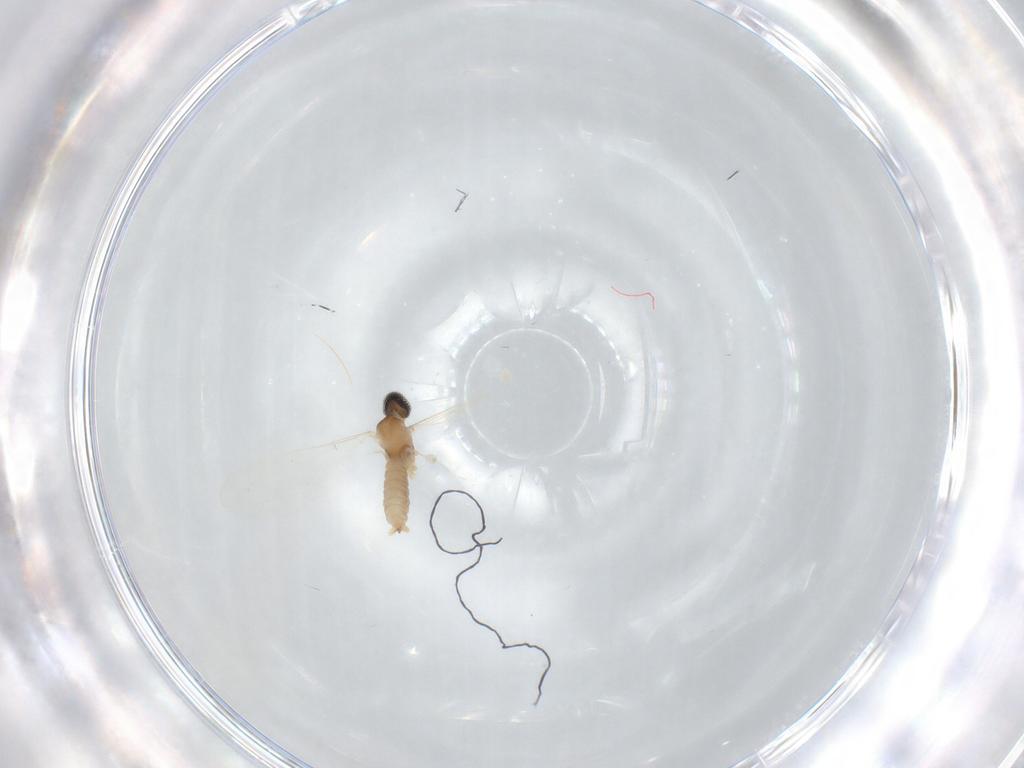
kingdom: Animalia
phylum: Arthropoda
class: Insecta
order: Diptera
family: Cecidomyiidae
